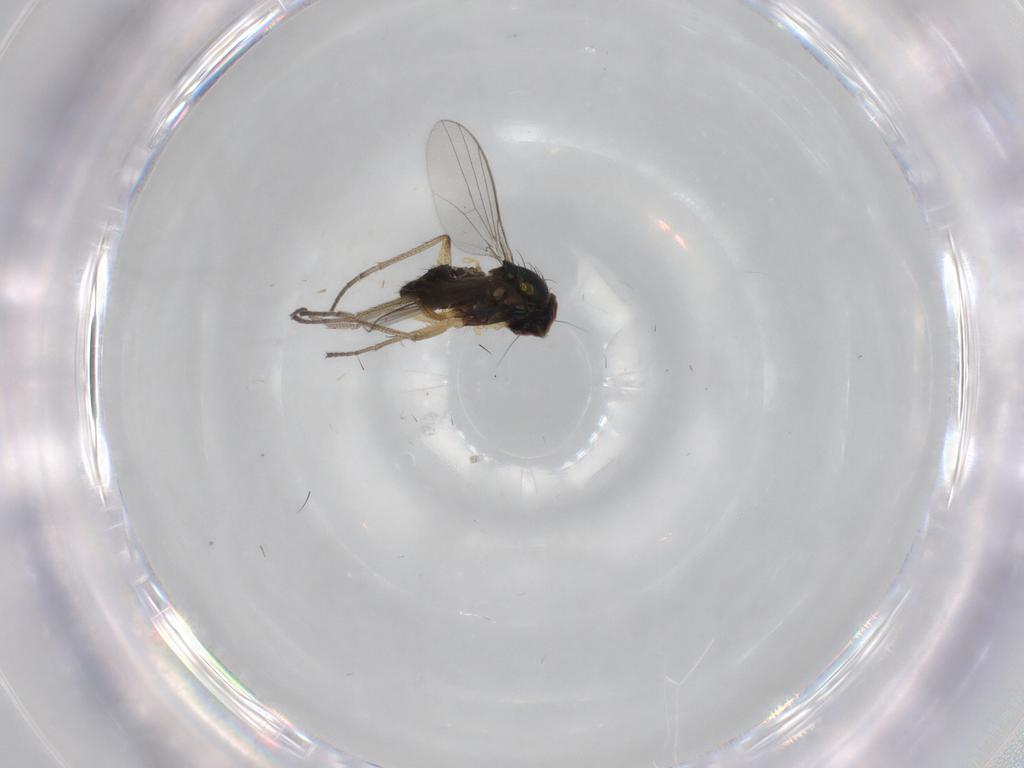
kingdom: Animalia
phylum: Arthropoda
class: Insecta
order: Diptera
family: Dolichopodidae
